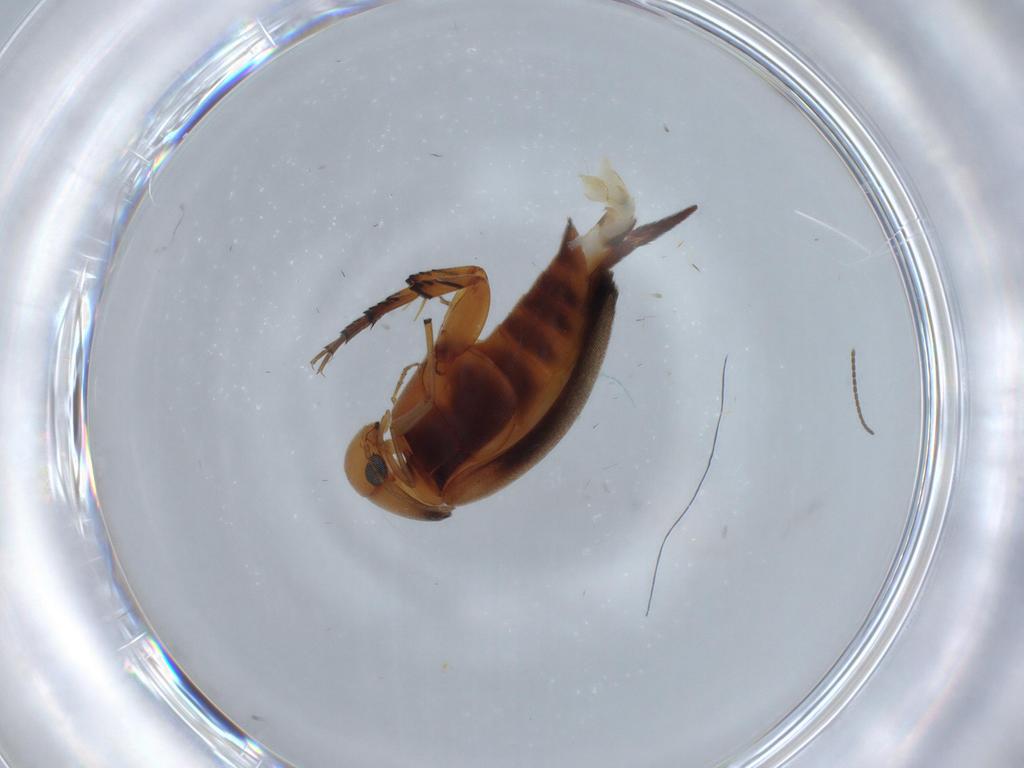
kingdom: Animalia
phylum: Arthropoda
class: Insecta
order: Coleoptera
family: Mordellidae
